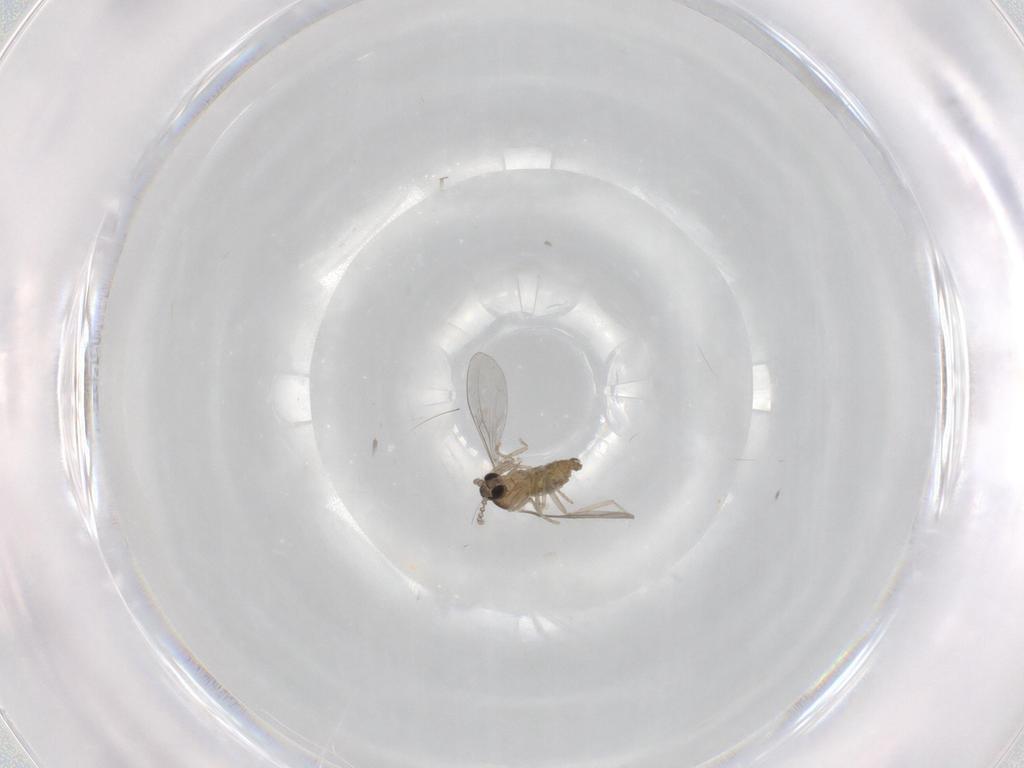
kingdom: Animalia
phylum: Arthropoda
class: Insecta
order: Diptera
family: Cecidomyiidae
